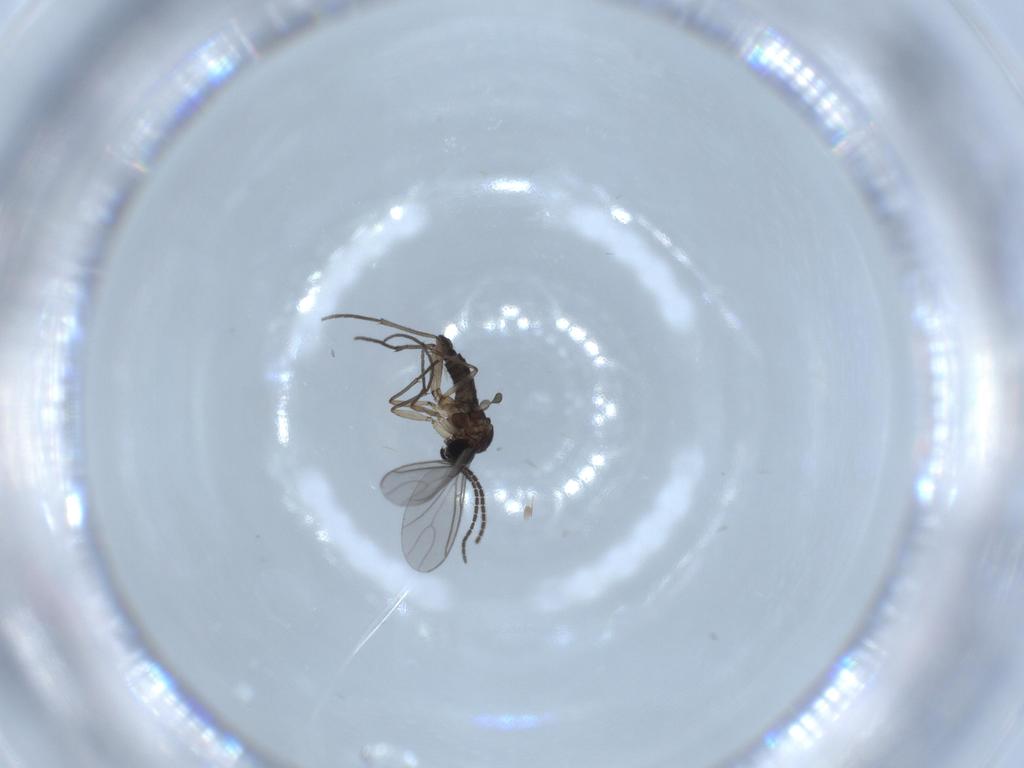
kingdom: Animalia
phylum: Arthropoda
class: Insecta
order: Diptera
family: Sciaridae
